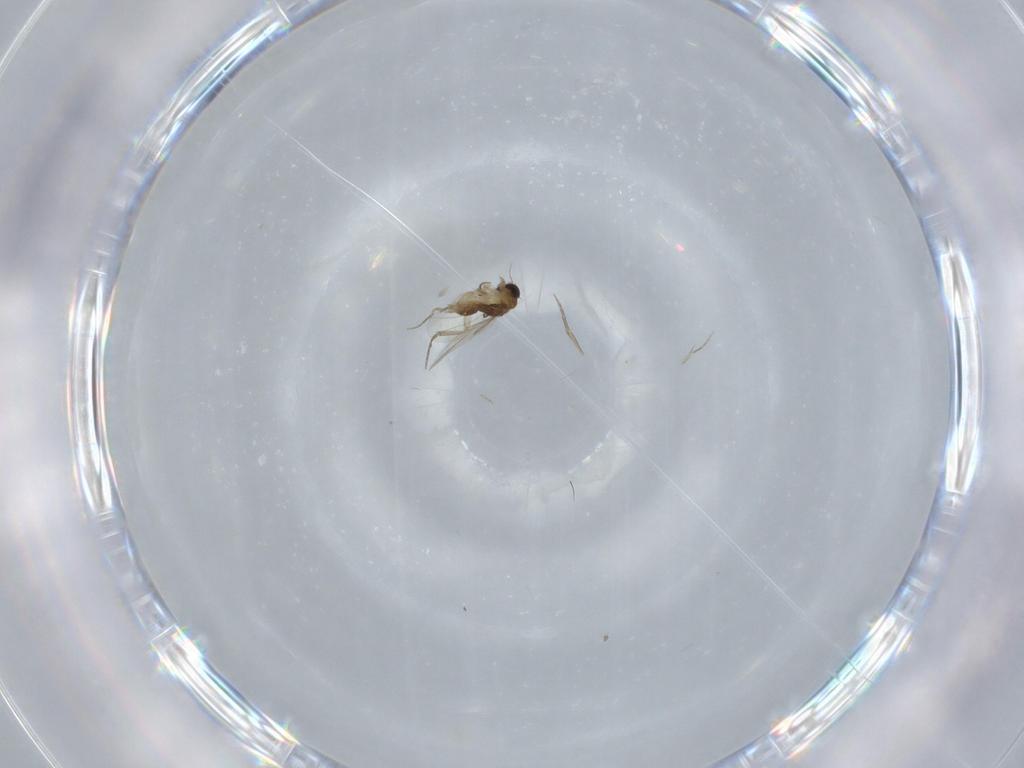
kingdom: Animalia
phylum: Arthropoda
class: Insecta
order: Diptera
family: Phoridae
